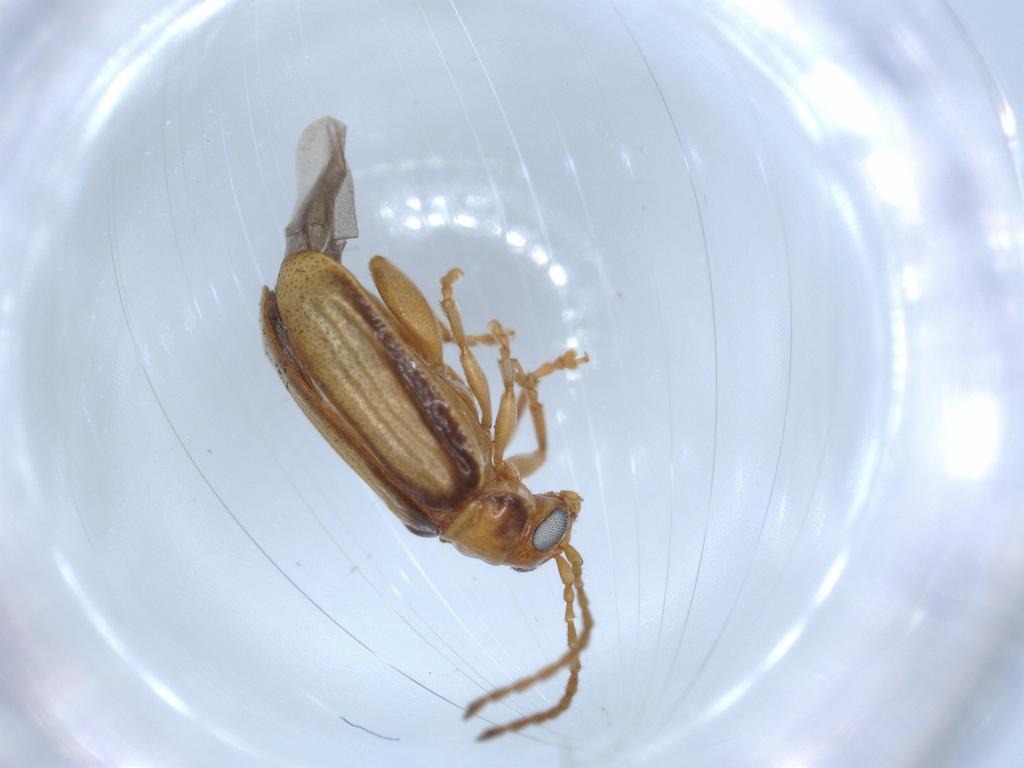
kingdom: Animalia
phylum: Arthropoda
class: Insecta
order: Coleoptera
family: Chrysomelidae
